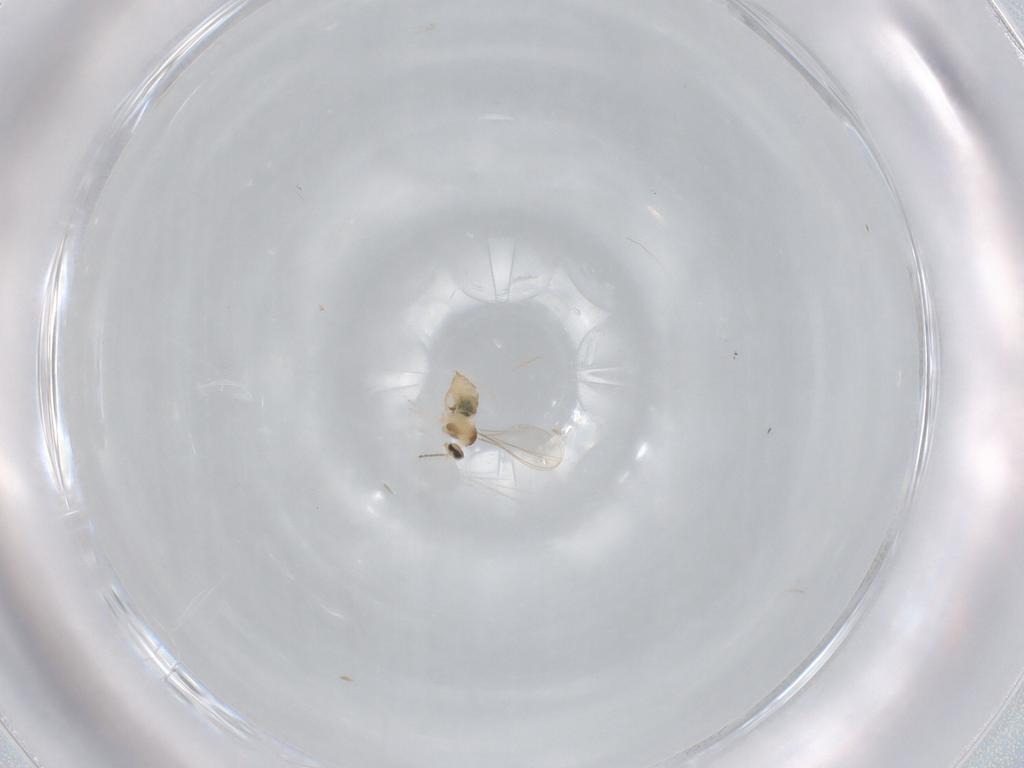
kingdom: Animalia
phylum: Arthropoda
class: Insecta
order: Diptera
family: Cecidomyiidae
